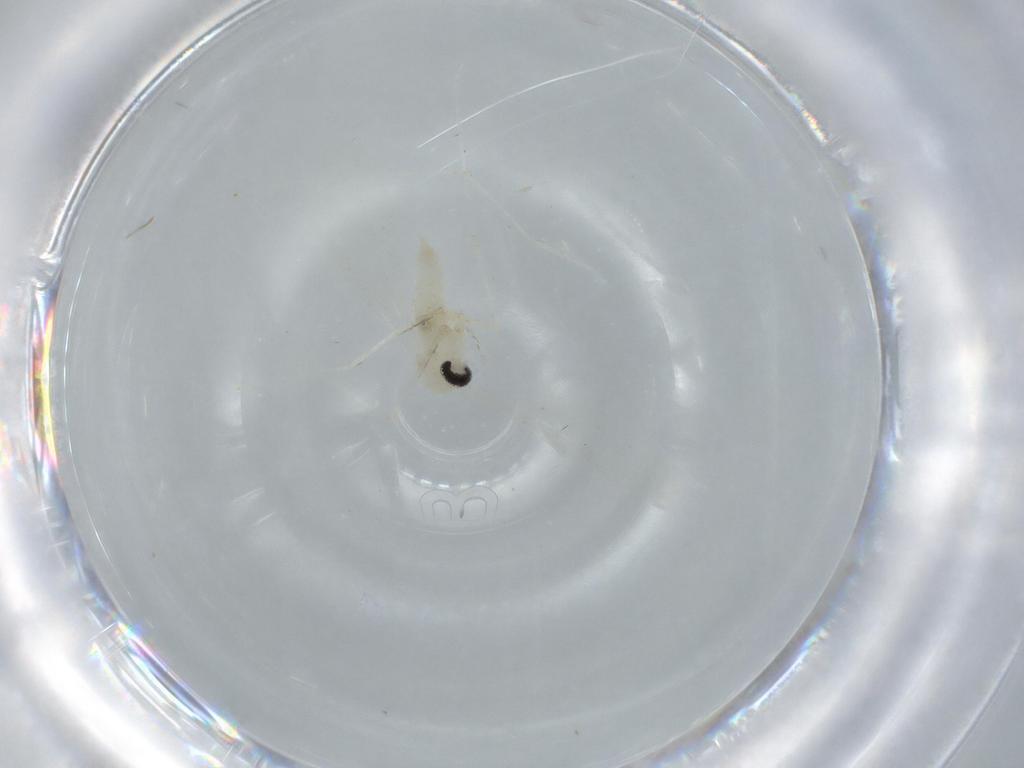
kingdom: Animalia
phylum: Arthropoda
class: Insecta
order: Diptera
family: Cecidomyiidae
